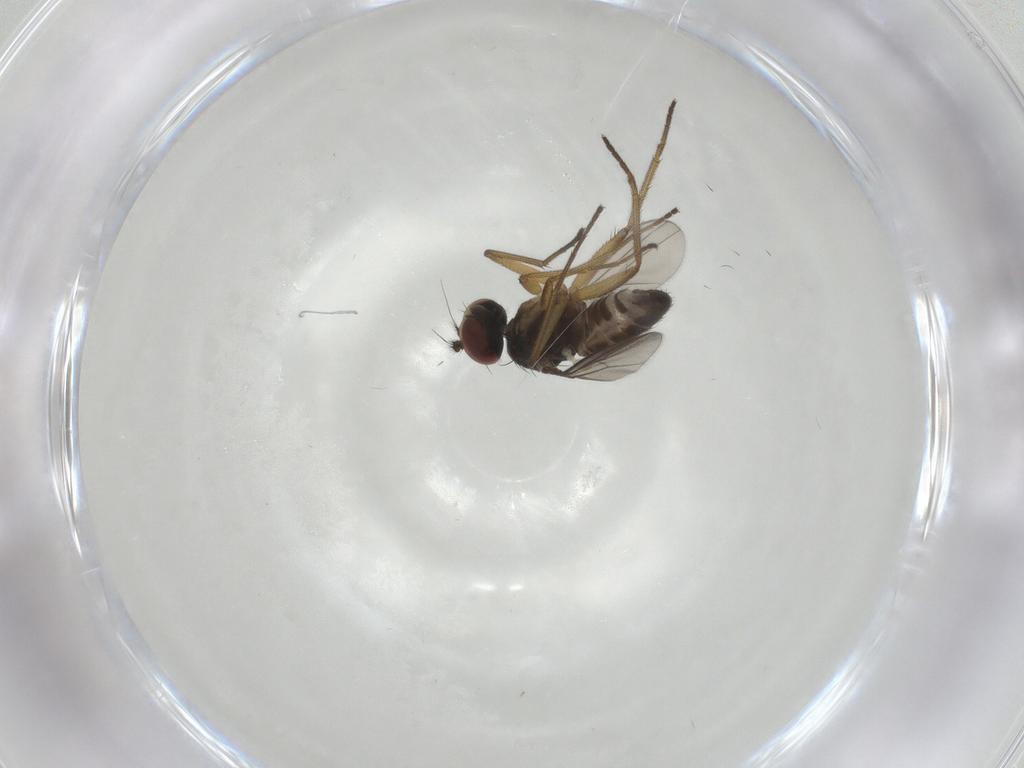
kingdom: Animalia
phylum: Arthropoda
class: Insecta
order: Diptera
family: Dolichopodidae
